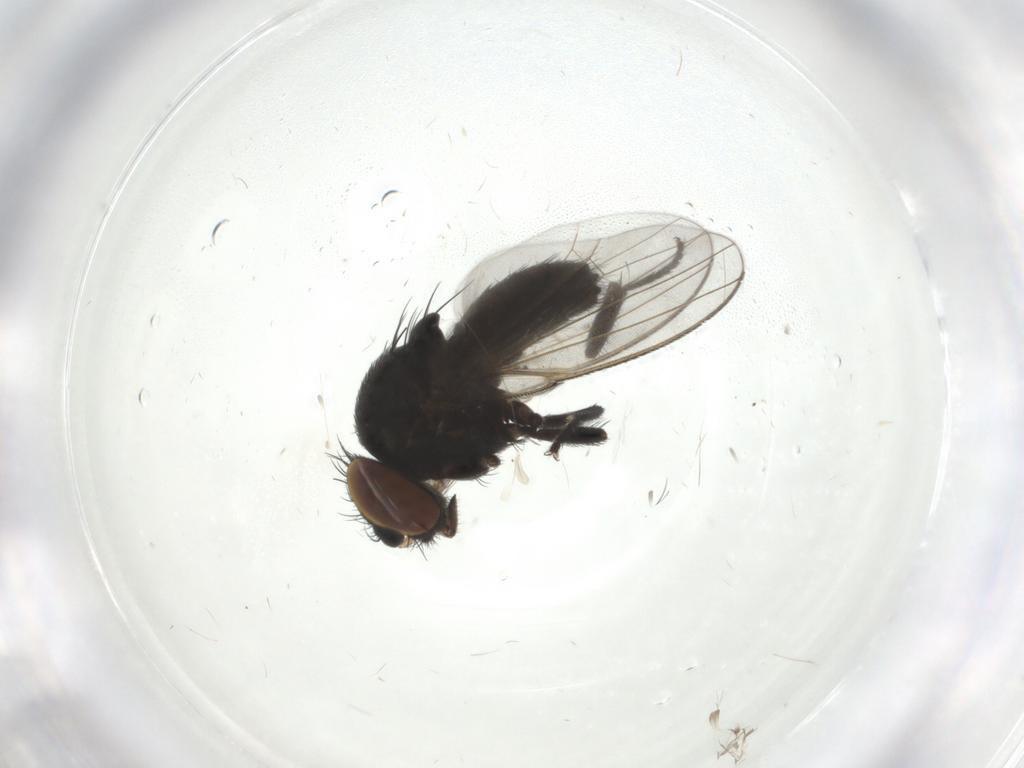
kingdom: Animalia
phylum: Arthropoda
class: Insecta
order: Diptera
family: Milichiidae
